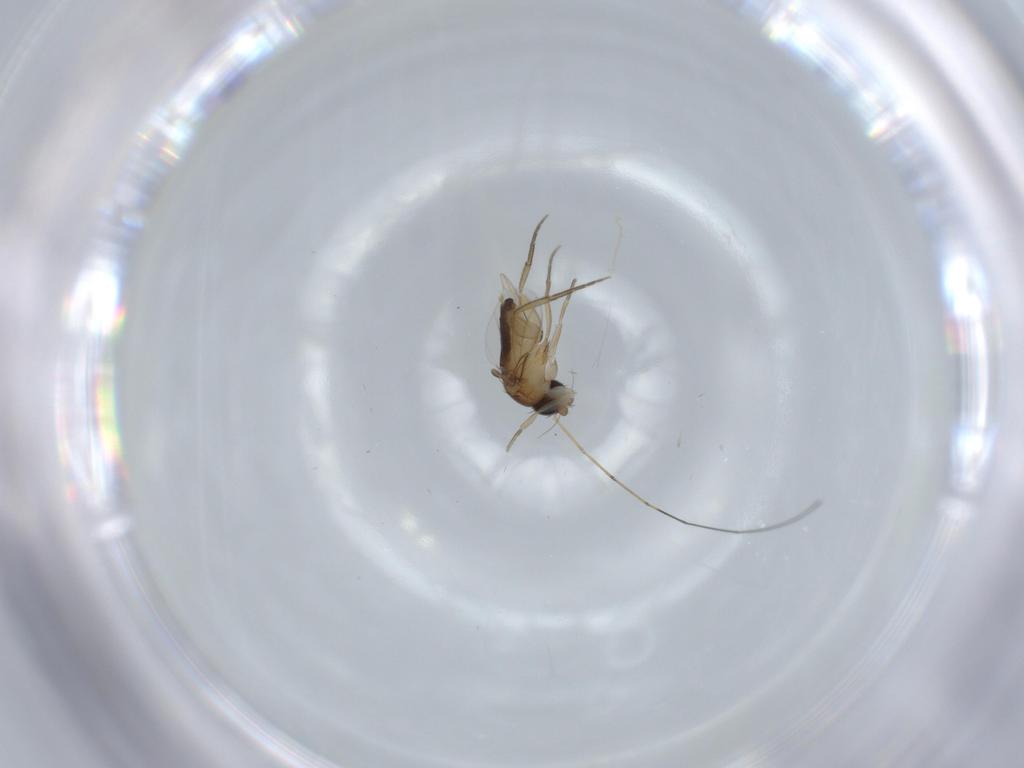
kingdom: Animalia
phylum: Arthropoda
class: Insecta
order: Diptera
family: Phoridae
